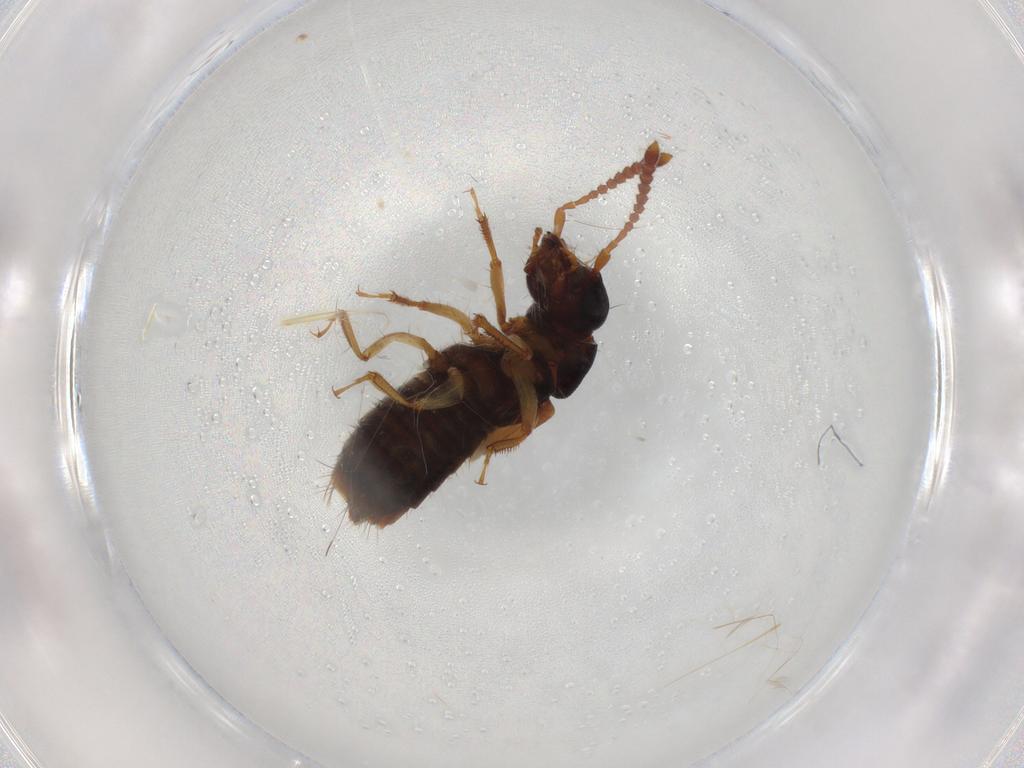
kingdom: Animalia
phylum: Arthropoda
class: Insecta
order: Coleoptera
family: Staphylinidae
